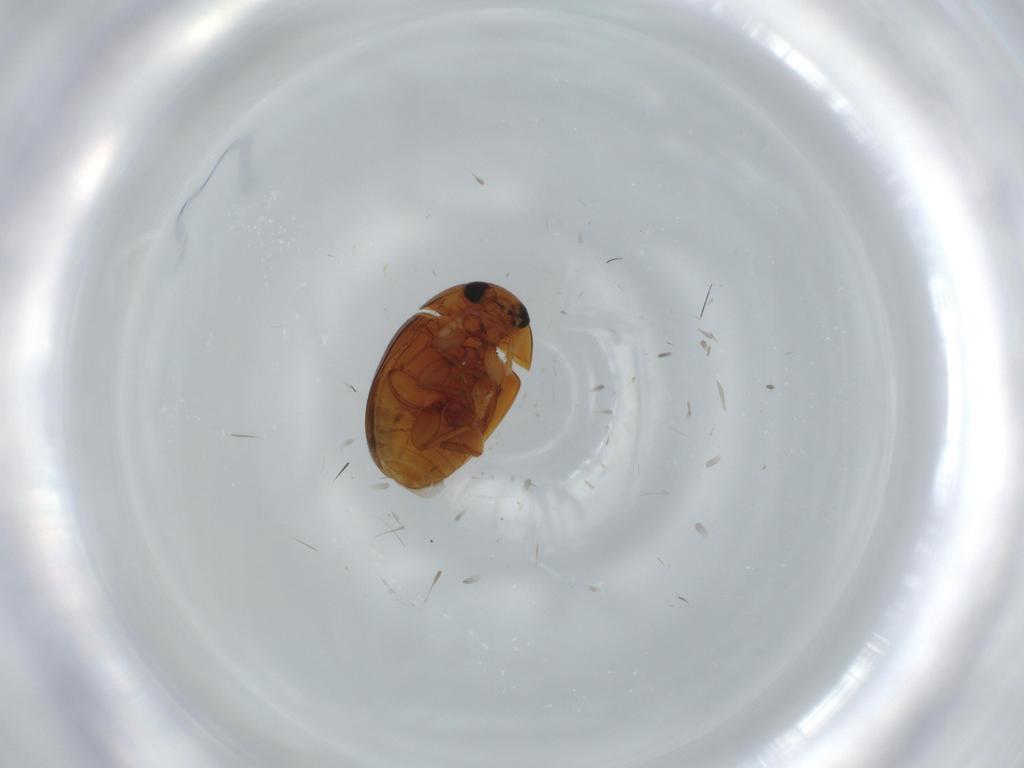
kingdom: Animalia
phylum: Arthropoda
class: Insecta
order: Coleoptera
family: Phalacridae
